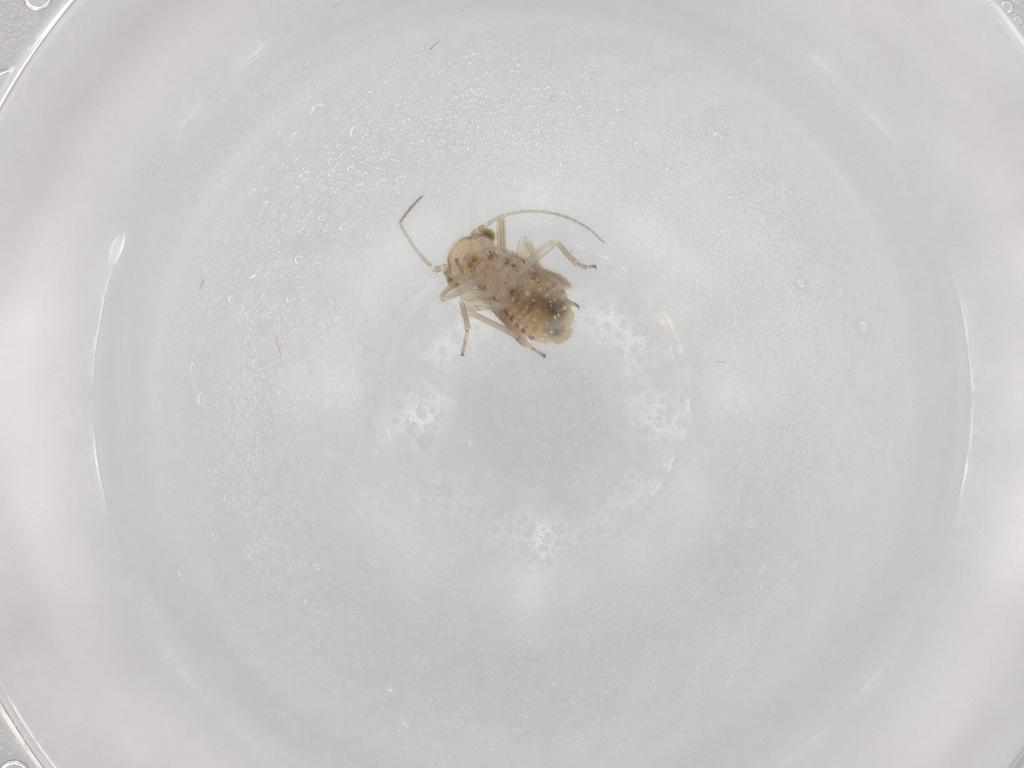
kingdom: Animalia
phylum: Arthropoda
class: Insecta
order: Psocodea
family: Lachesillidae
